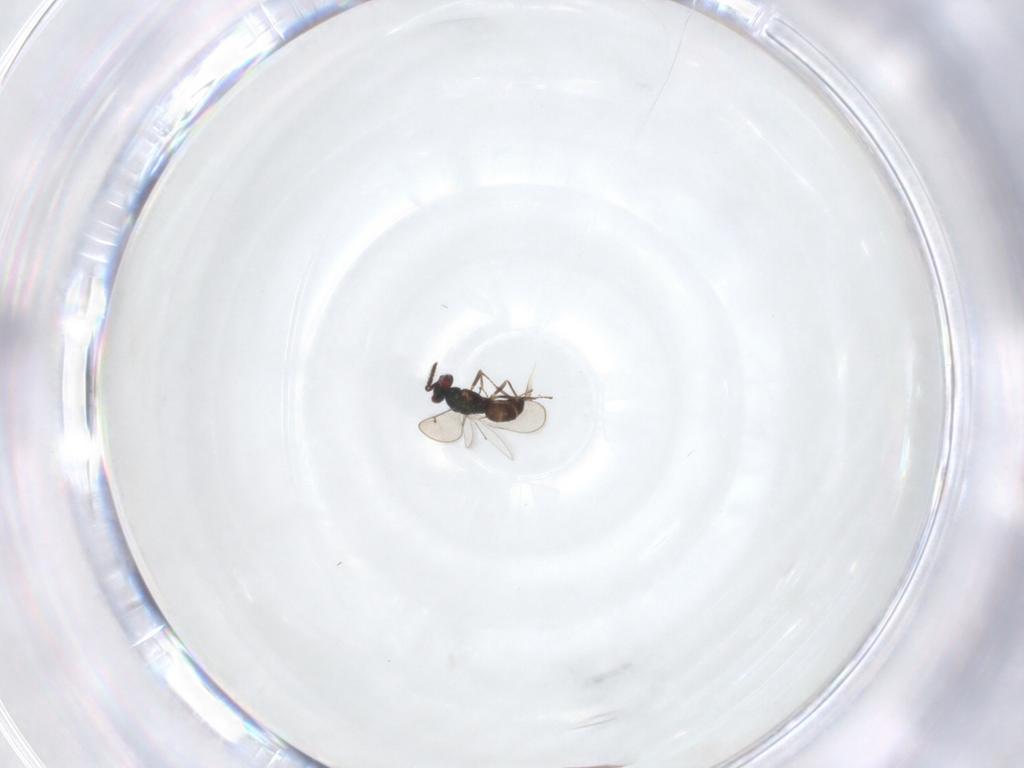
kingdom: Animalia
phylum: Arthropoda
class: Insecta
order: Hymenoptera
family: Eulophidae
